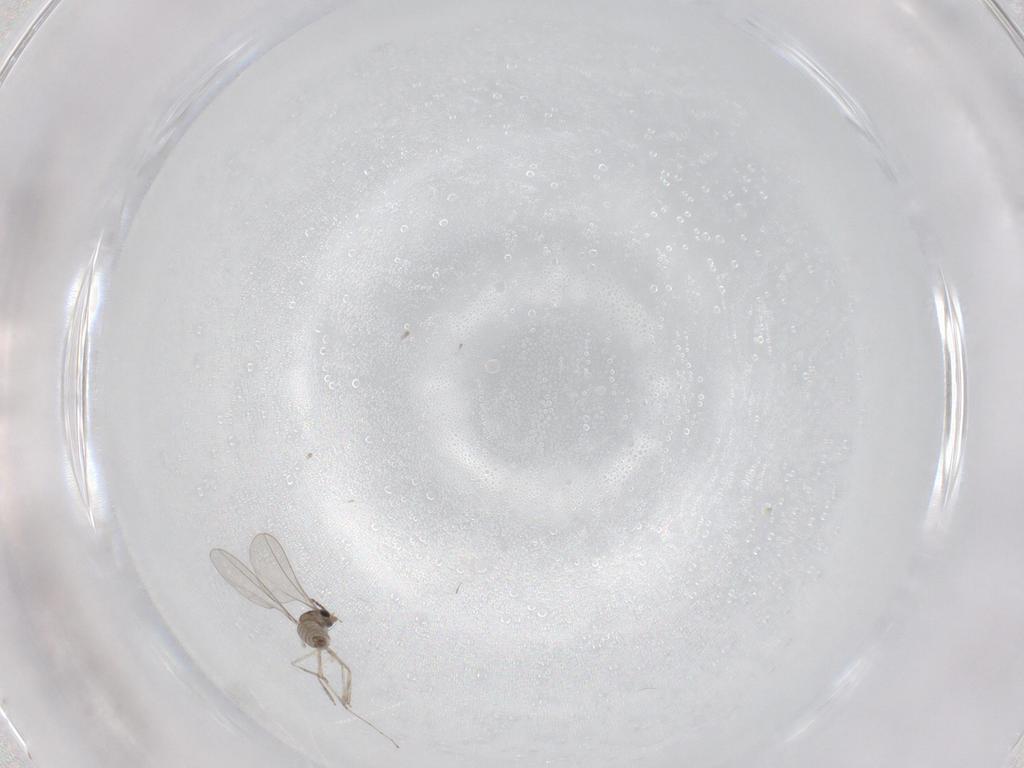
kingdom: Animalia
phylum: Arthropoda
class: Insecta
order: Diptera
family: Cecidomyiidae
